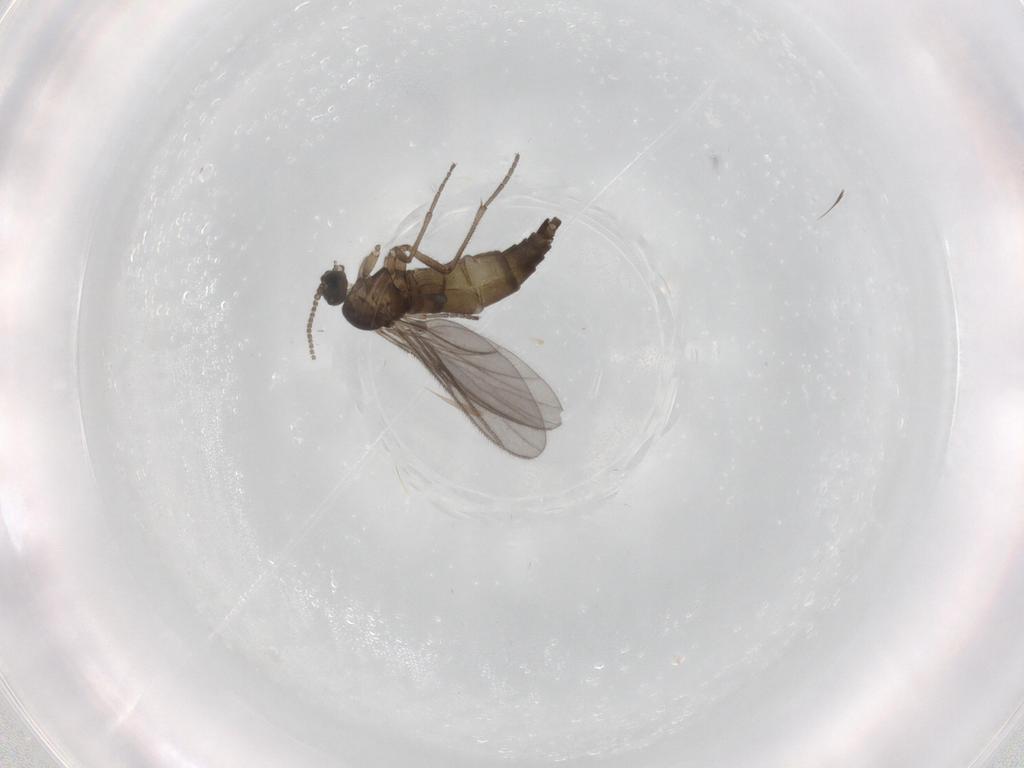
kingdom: Animalia
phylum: Arthropoda
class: Insecta
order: Diptera
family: Sciaridae
